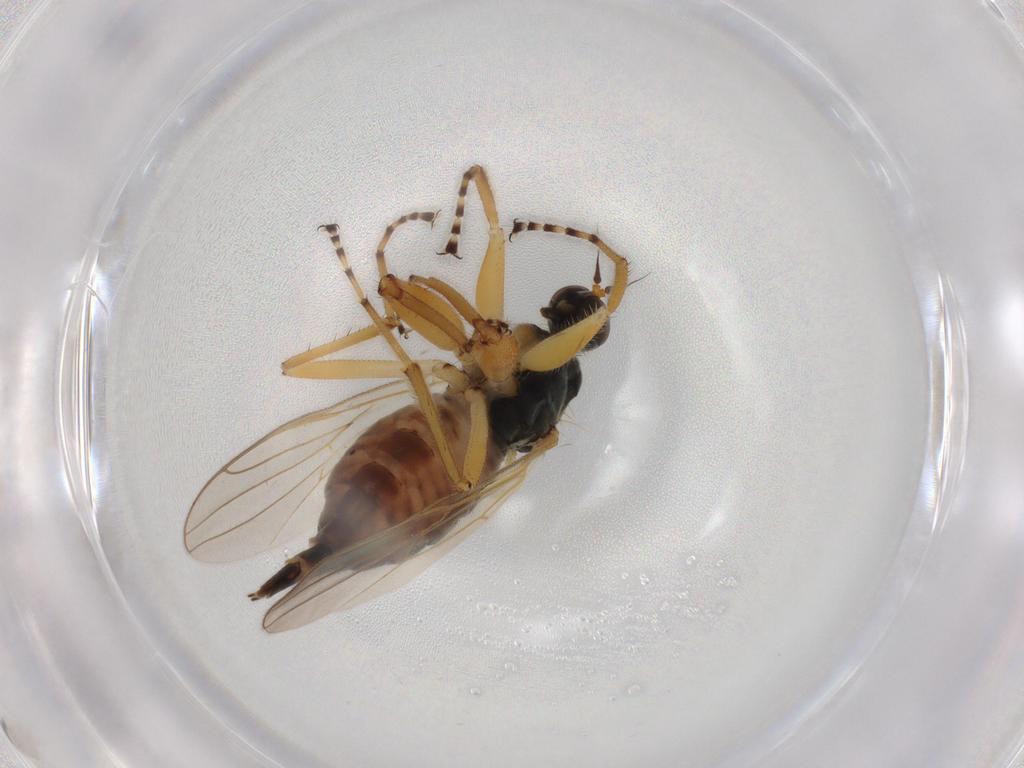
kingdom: Animalia
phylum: Arthropoda
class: Insecta
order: Diptera
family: Hybotidae
